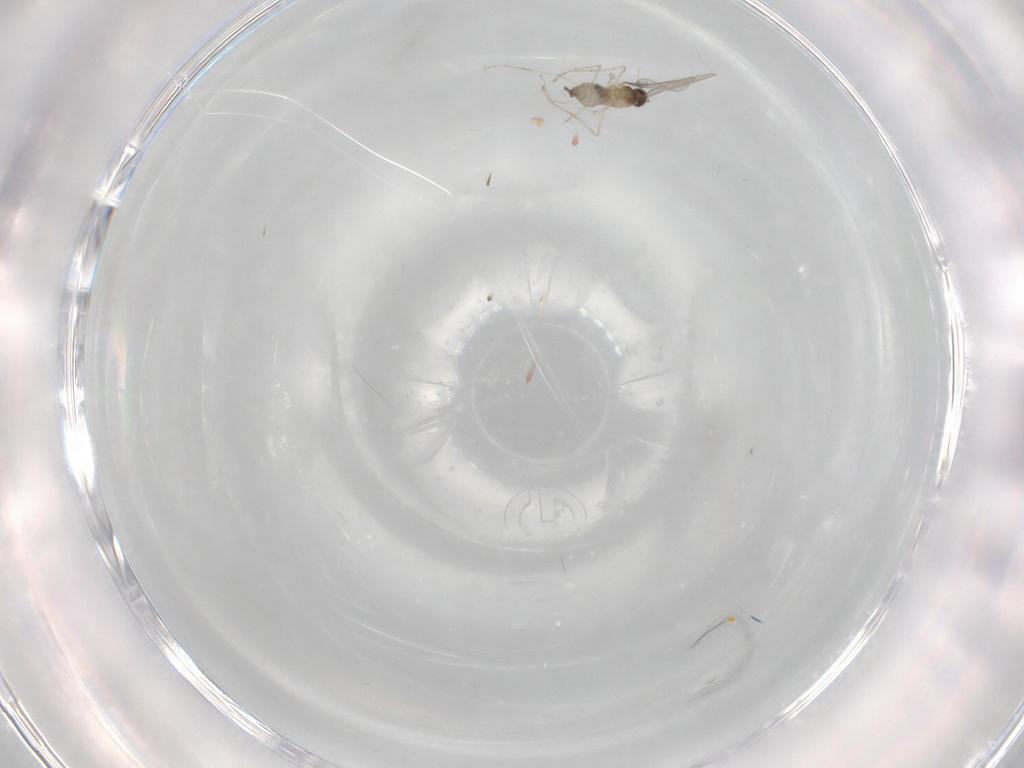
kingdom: Animalia
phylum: Arthropoda
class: Insecta
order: Diptera
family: Cecidomyiidae
